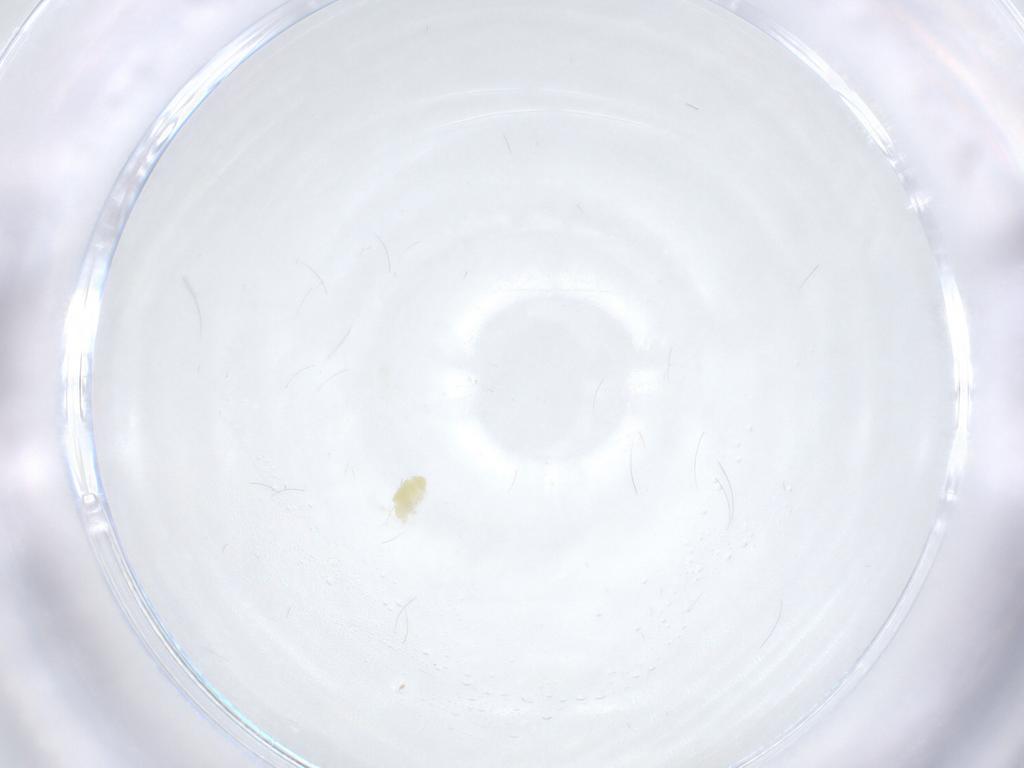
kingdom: Animalia
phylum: Arthropoda
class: Arachnida
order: Trombidiformes
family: Eupodidae
